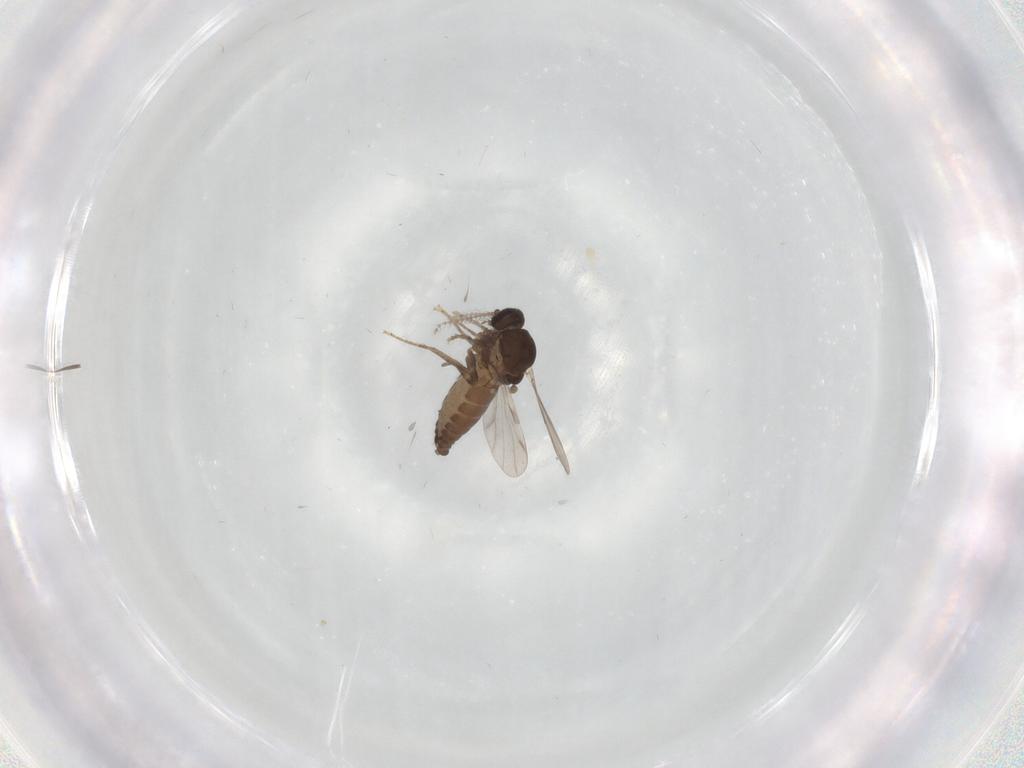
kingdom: Animalia
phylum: Arthropoda
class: Insecta
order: Diptera
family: Ceratopogonidae
